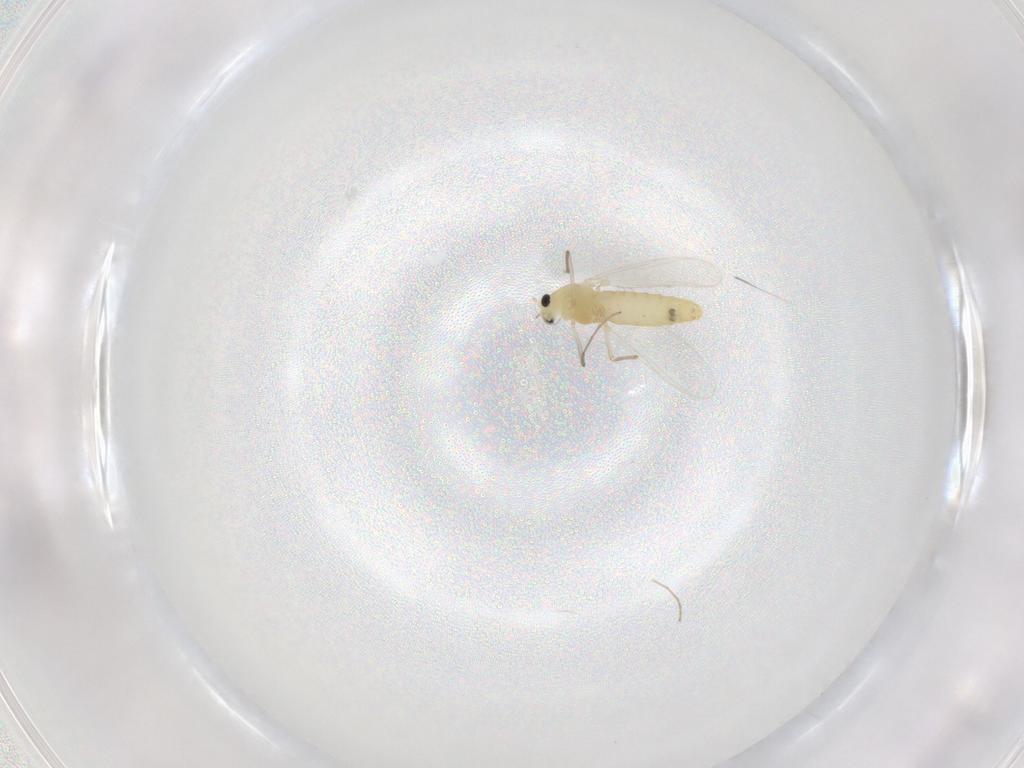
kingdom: Animalia
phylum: Arthropoda
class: Insecta
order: Diptera
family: Chironomidae
